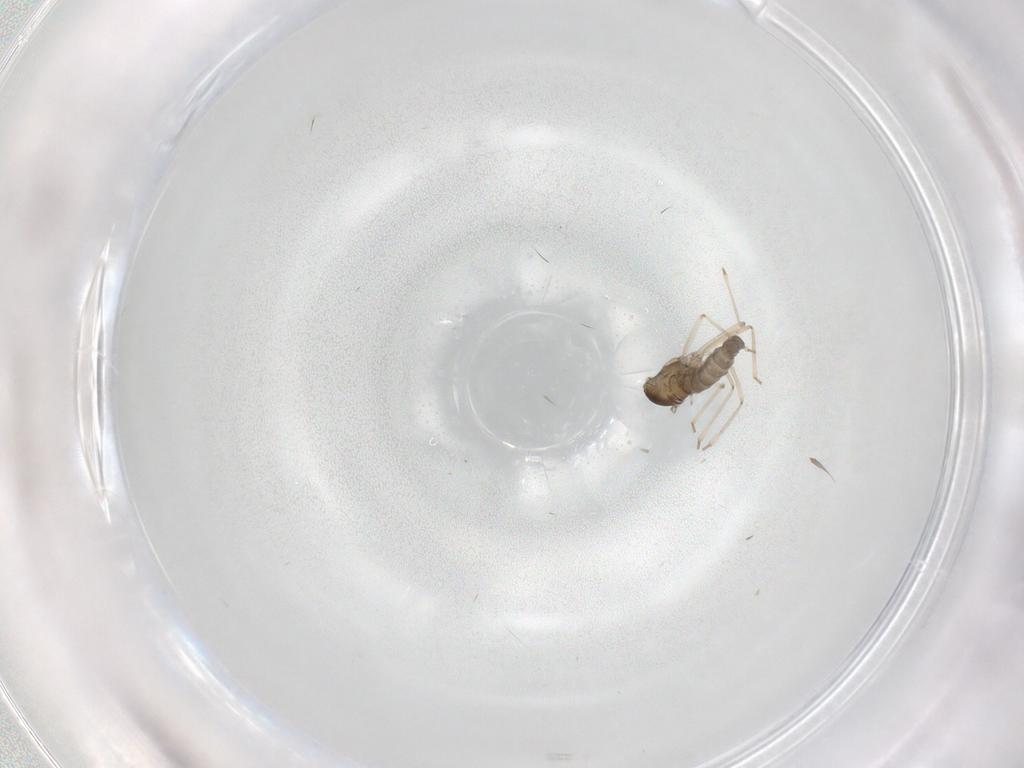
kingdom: Animalia
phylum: Arthropoda
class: Insecta
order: Diptera
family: Cecidomyiidae
